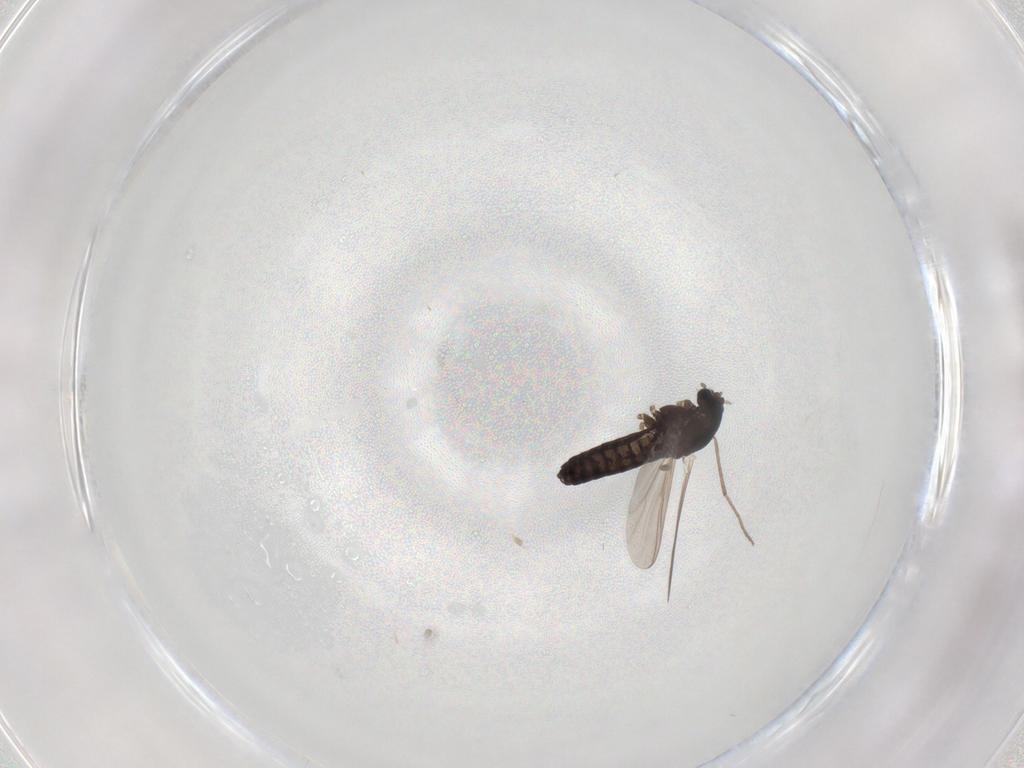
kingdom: Animalia
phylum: Arthropoda
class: Insecta
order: Diptera
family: Chironomidae
